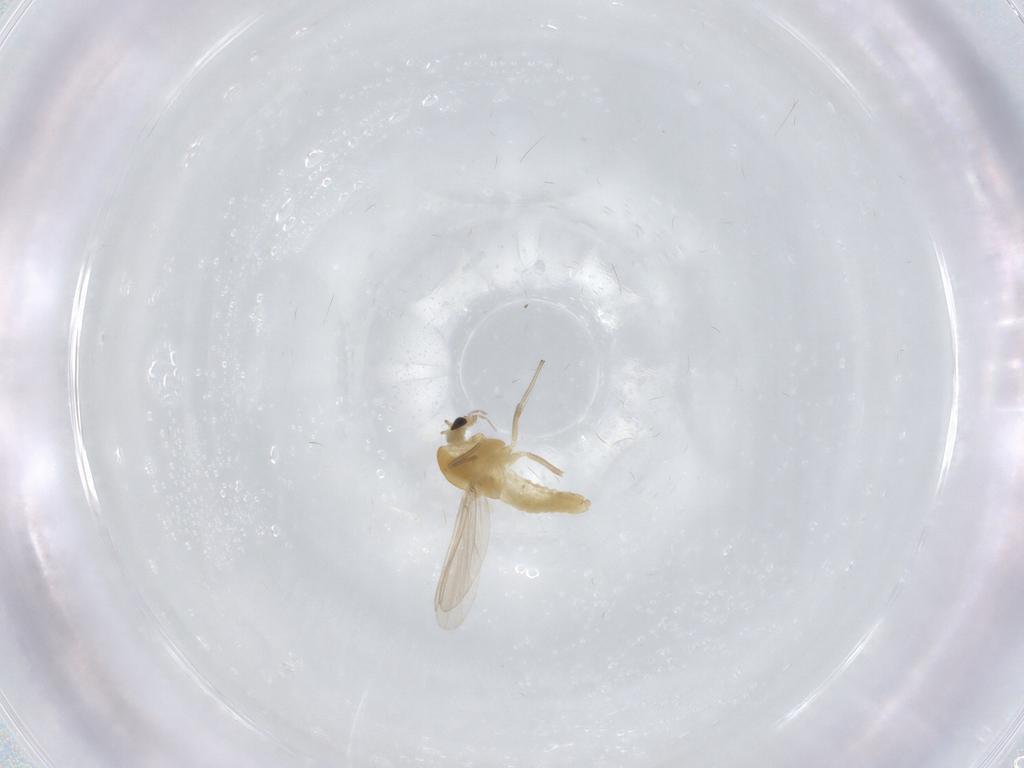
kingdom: Animalia
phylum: Arthropoda
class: Insecta
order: Diptera
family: Chironomidae
